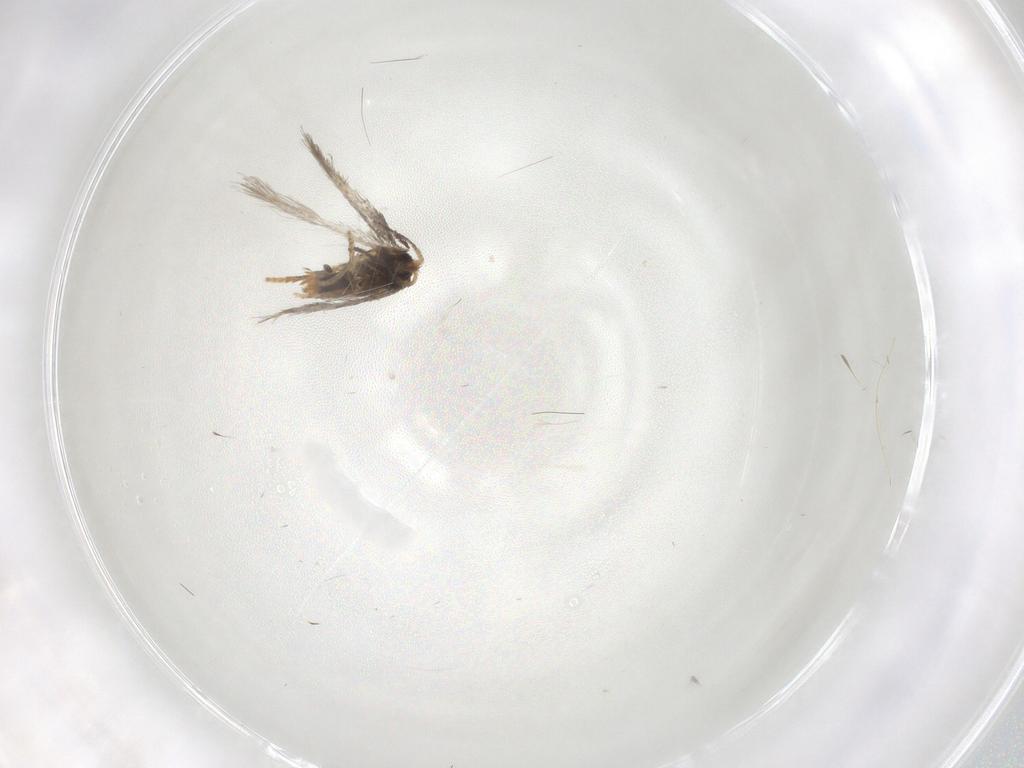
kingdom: Animalia
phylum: Arthropoda
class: Insecta
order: Lepidoptera
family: Nepticulidae
